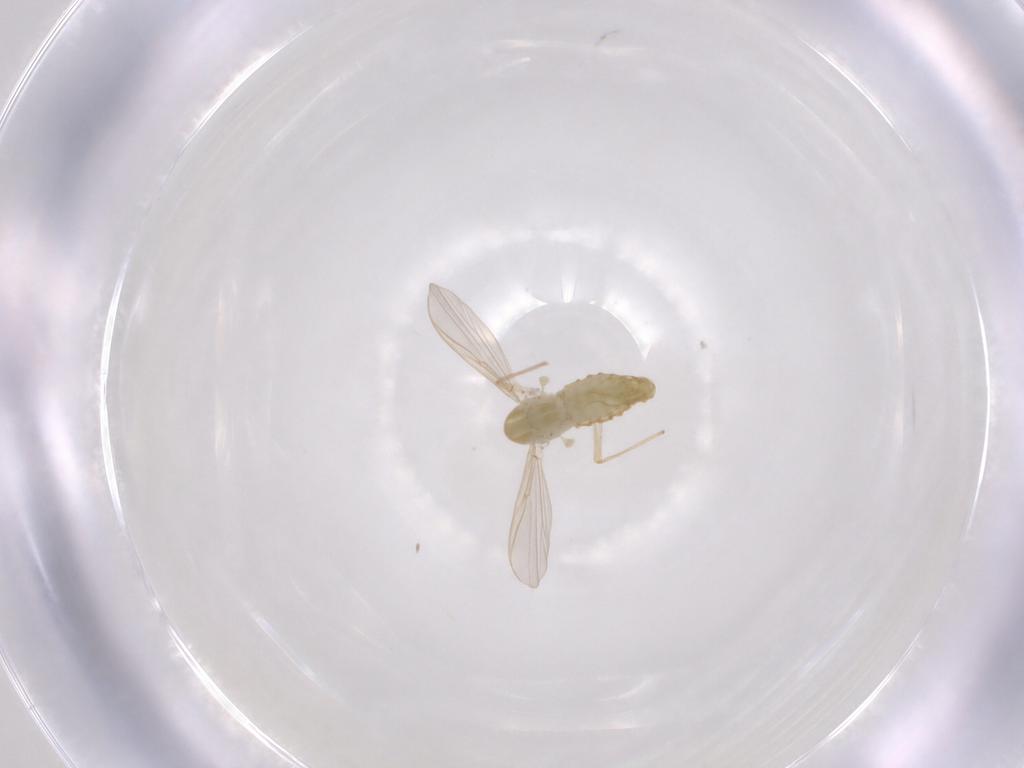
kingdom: Animalia
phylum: Arthropoda
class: Insecta
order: Diptera
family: Chironomidae
